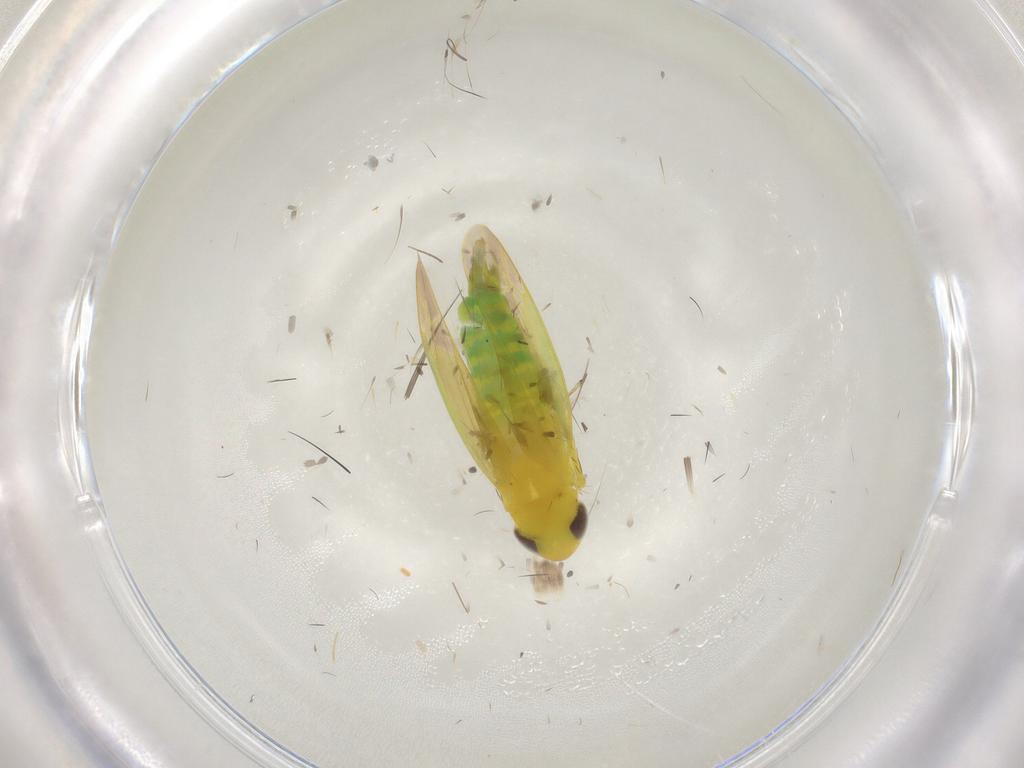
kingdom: Animalia
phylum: Arthropoda
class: Insecta
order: Hemiptera
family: Cicadellidae
